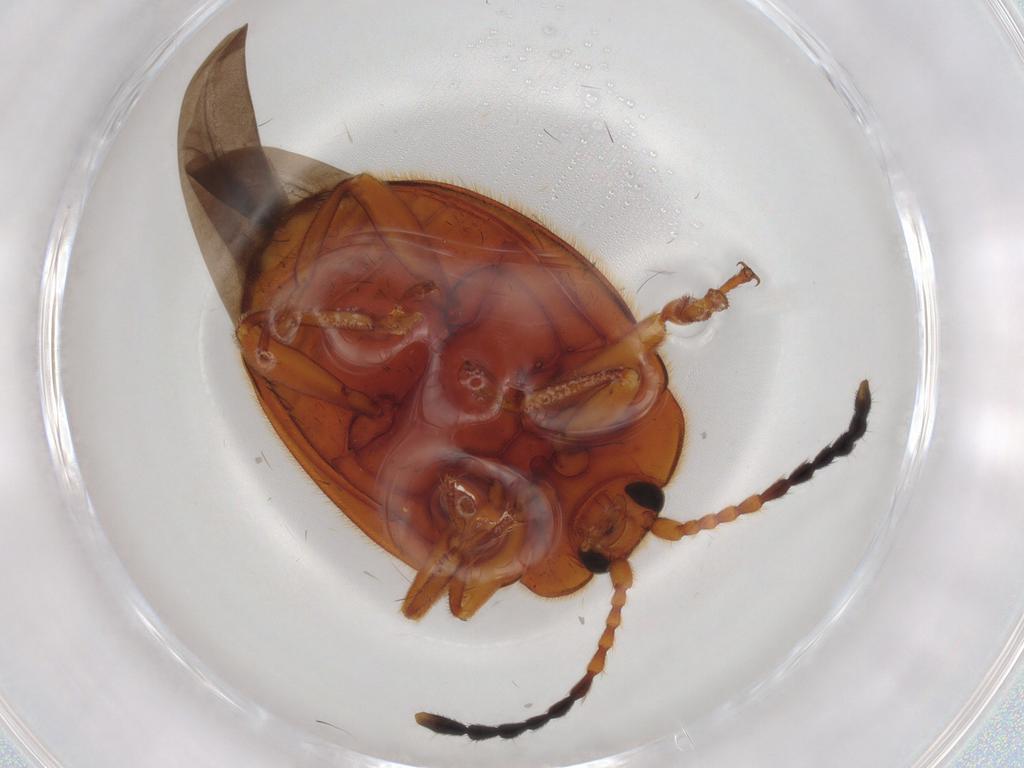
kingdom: Animalia
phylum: Arthropoda
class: Insecta
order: Coleoptera
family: Endomychidae
